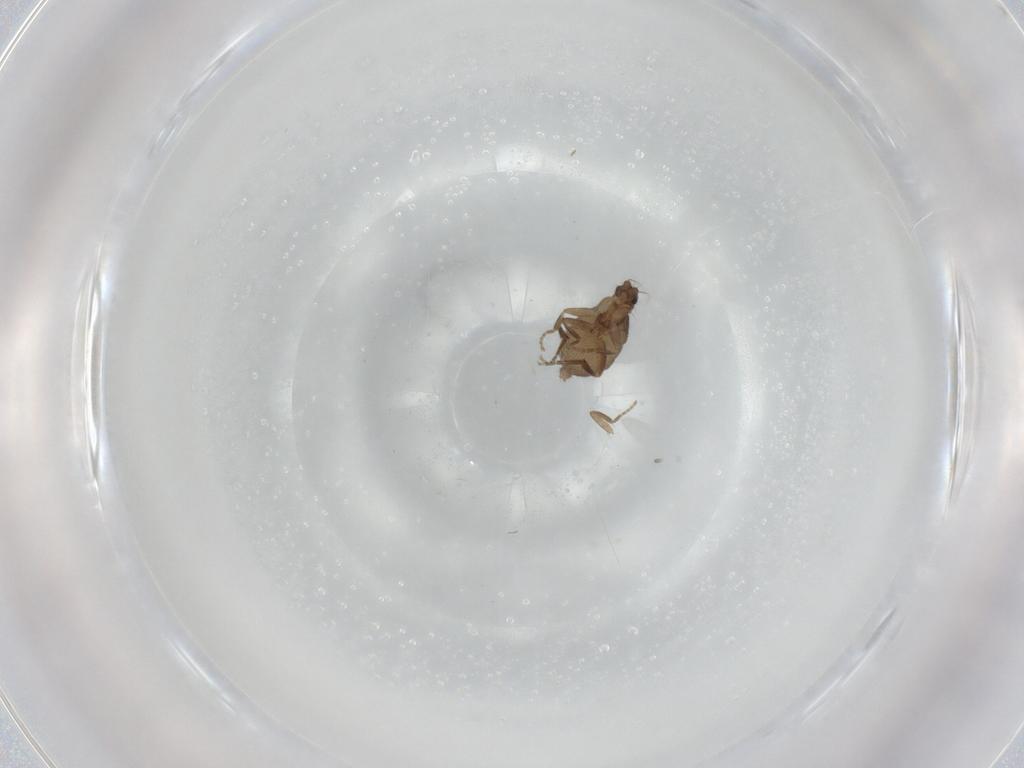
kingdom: Animalia
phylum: Arthropoda
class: Insecta
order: Diptera
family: Phoridae
